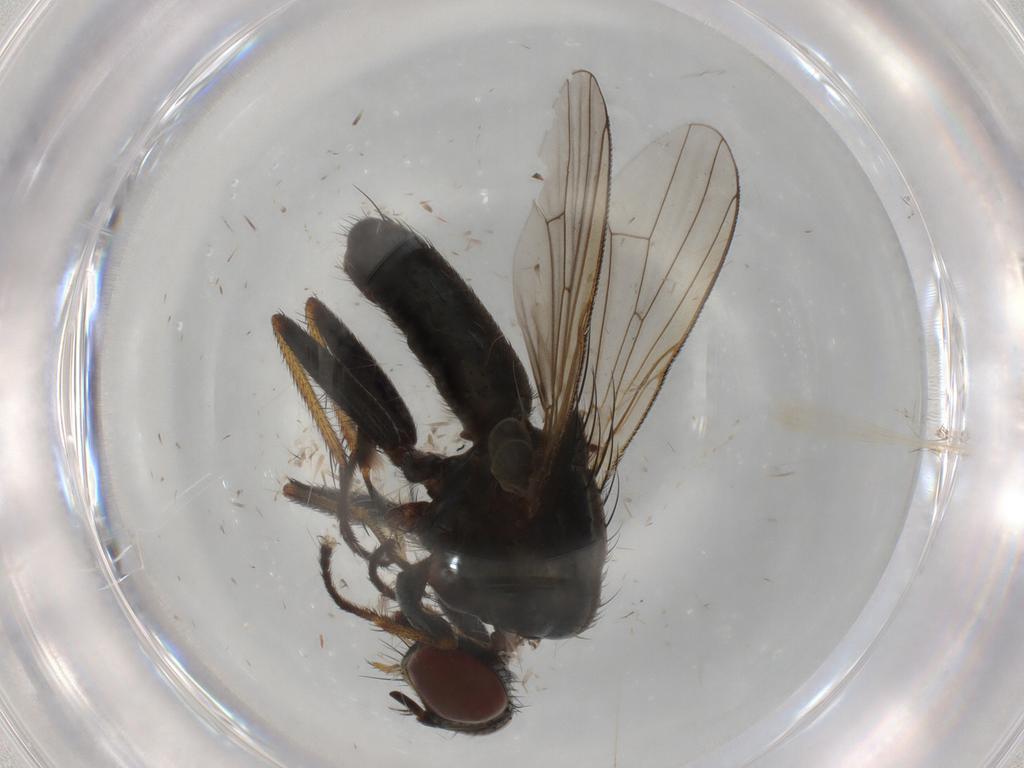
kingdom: Animalia
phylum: Arthropoda
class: Insecta
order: Diptera
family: Muscidae
